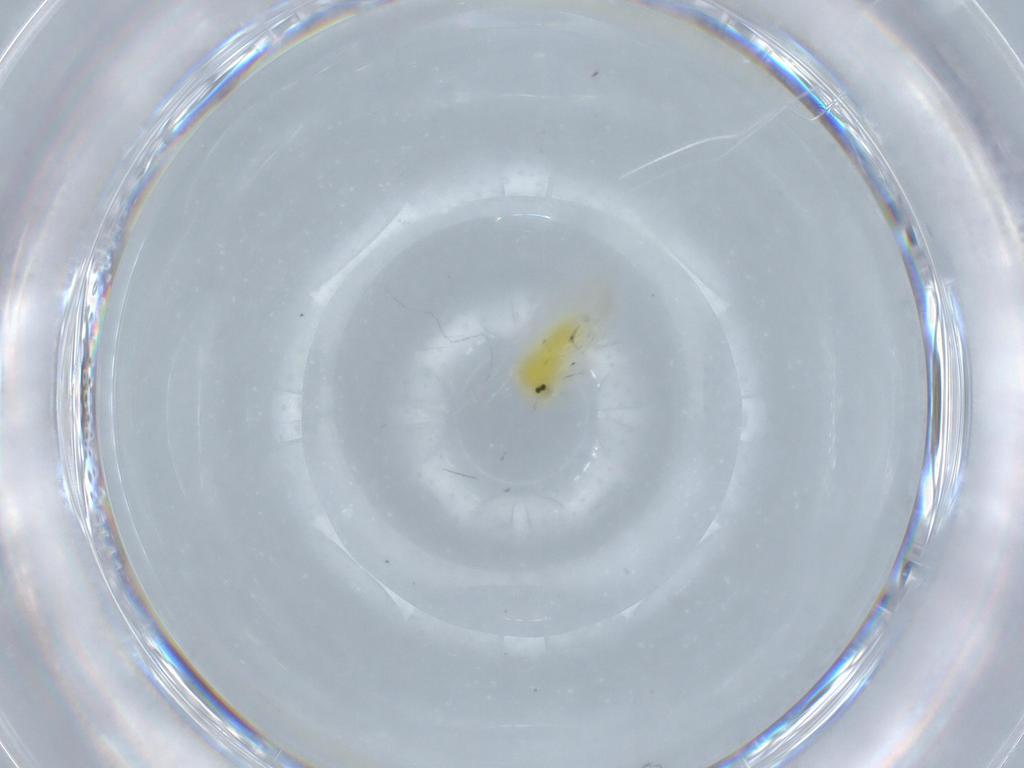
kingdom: Animalia
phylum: Arthropoda
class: Insecta
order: Hemiptera
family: Aleyrodidae
